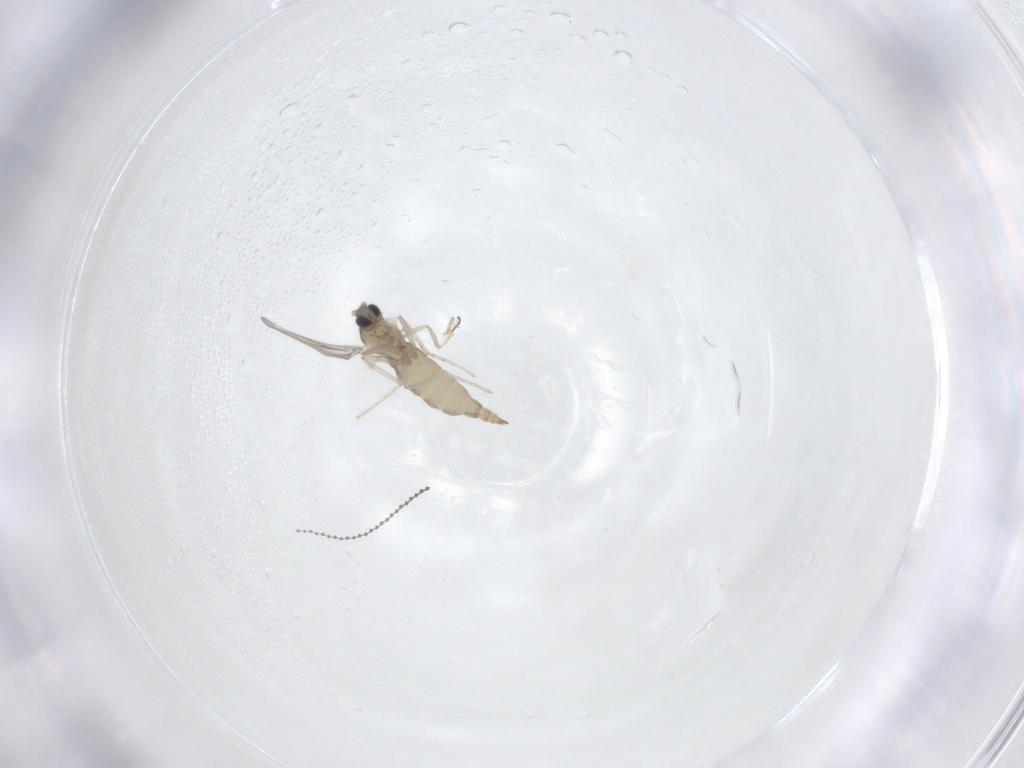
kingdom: Animalia
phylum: Arthropoda
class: Insecta
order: Diptera
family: Cecidomyiidae
